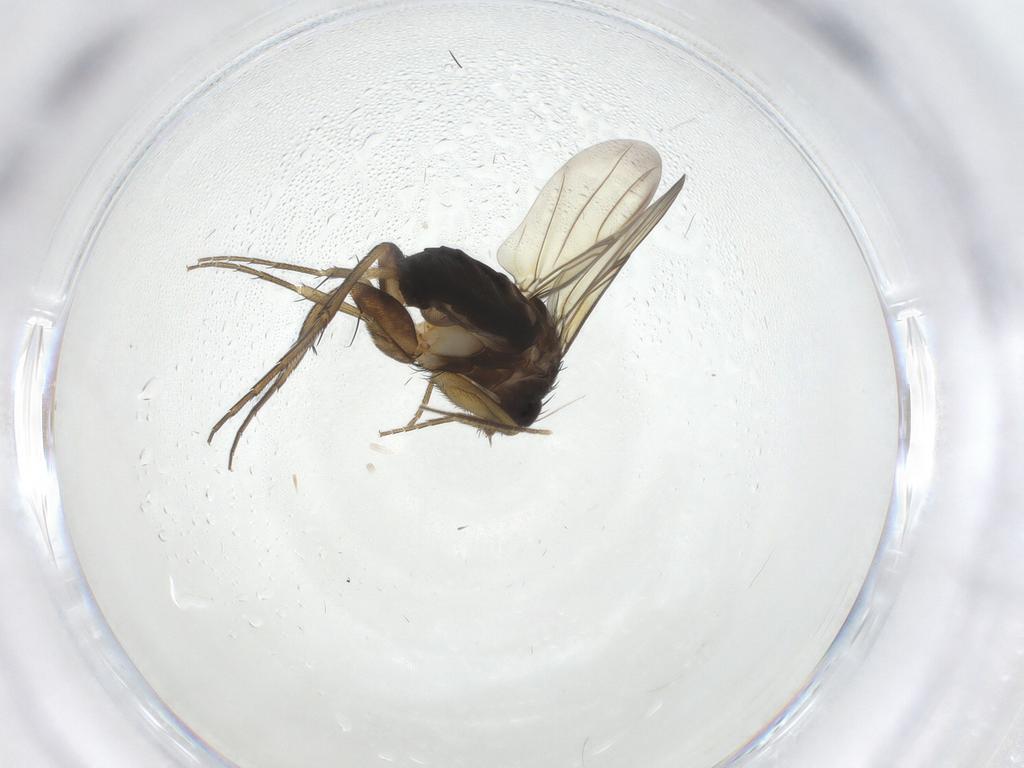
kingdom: Animalia
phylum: Arthropoda
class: Insecta
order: Diptera
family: Phoridae
